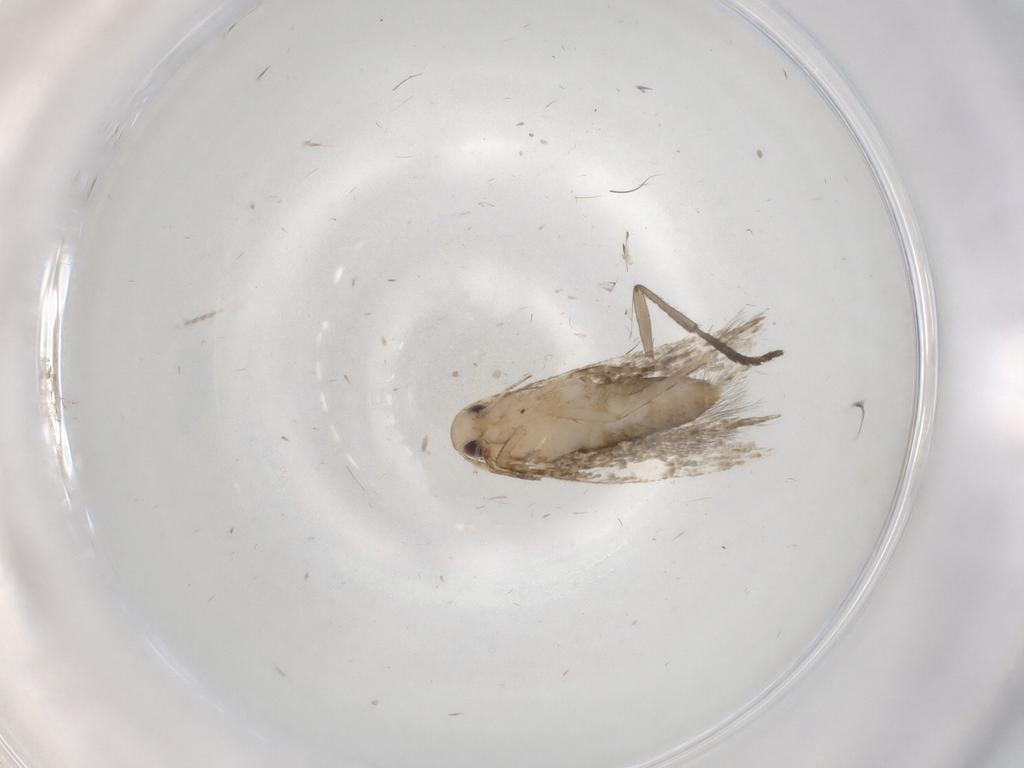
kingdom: Animalia
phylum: Arthropoda
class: Insecta
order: Lepidoptera
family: Cosmopterigidae
